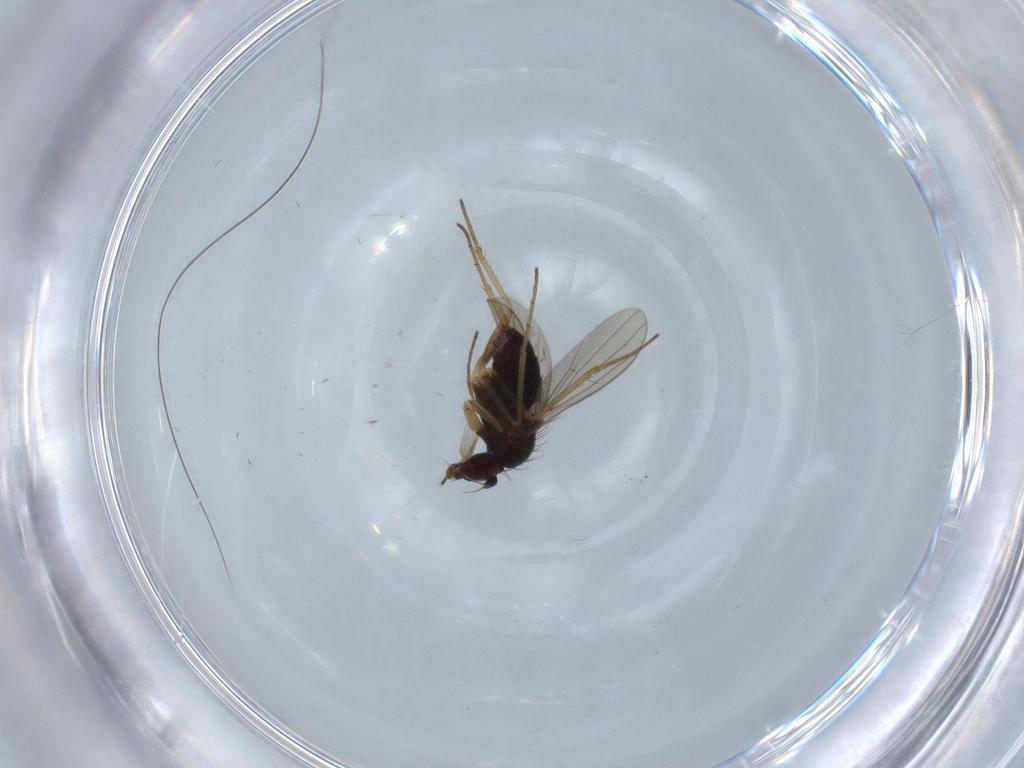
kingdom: Animalia
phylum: Arthropoda
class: Insecta
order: Diptera
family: Dolichopodidae
